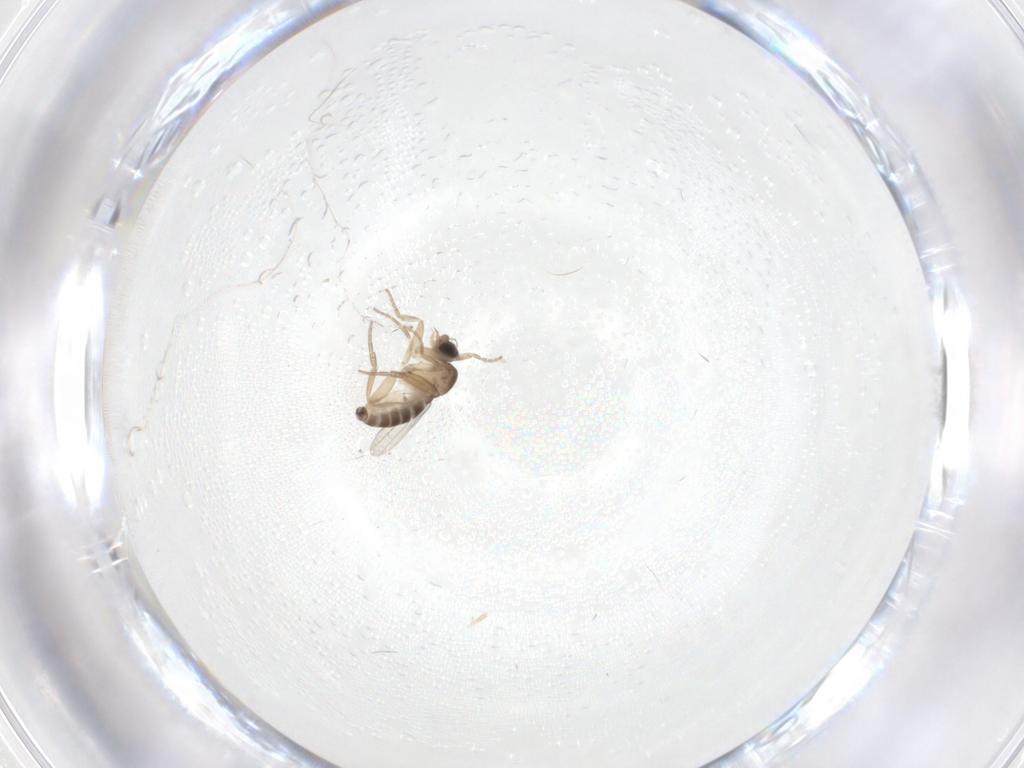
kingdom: Animalia
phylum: Arthropoda
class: Insecta
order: Diptera
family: Phoridae
